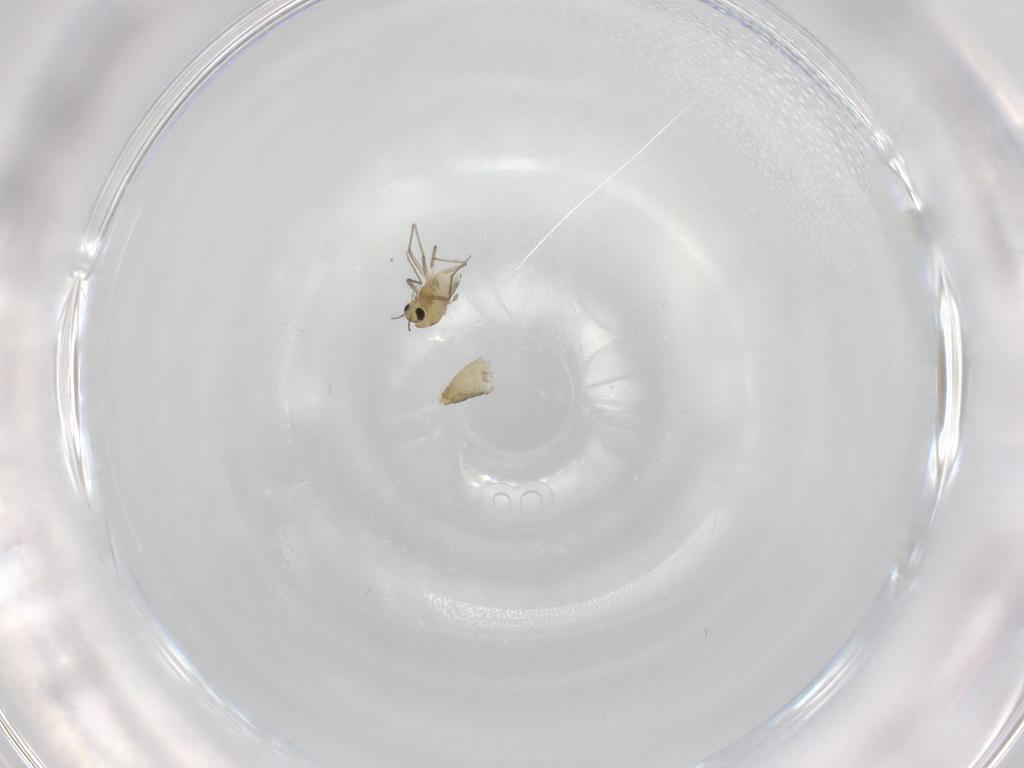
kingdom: Animalia
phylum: Arthropoda
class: Insecta
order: Diptera
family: Chironomidae
